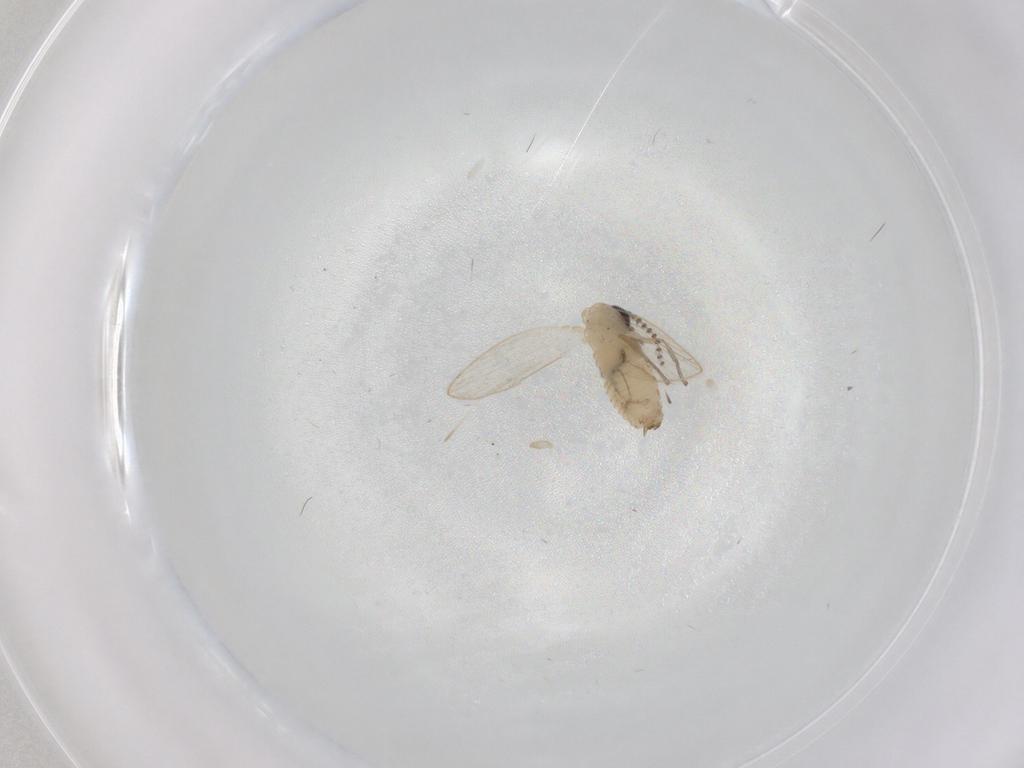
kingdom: Animalia
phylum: Arthropoda
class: Insecta
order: Diptera
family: Psychodidae
